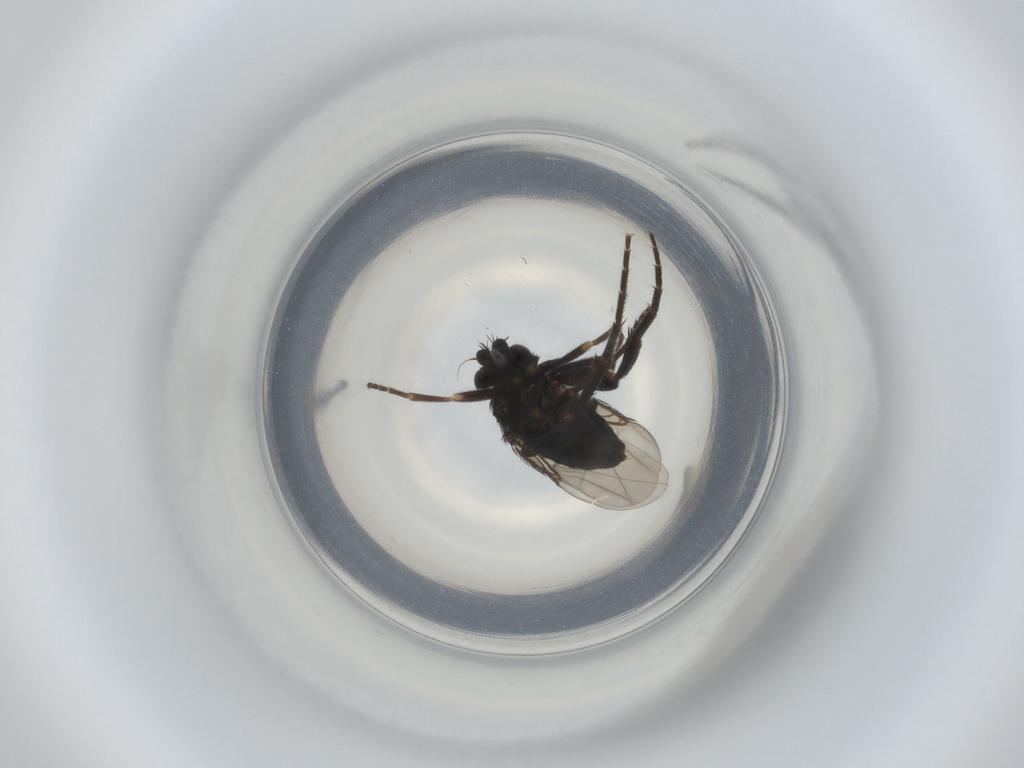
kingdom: Animalia
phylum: Arthropoda
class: Insecta
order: Diptera
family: Phoridae
